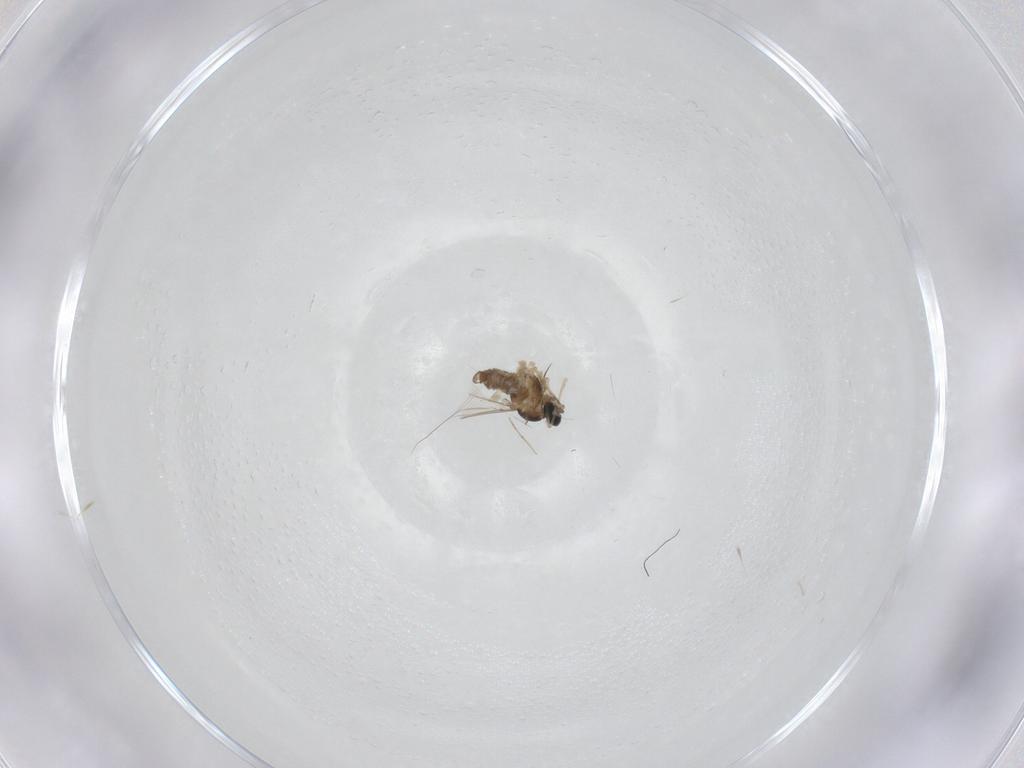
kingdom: Animalia
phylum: Arthropoda
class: Insecta
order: Diptera
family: Cecidomyiidae
